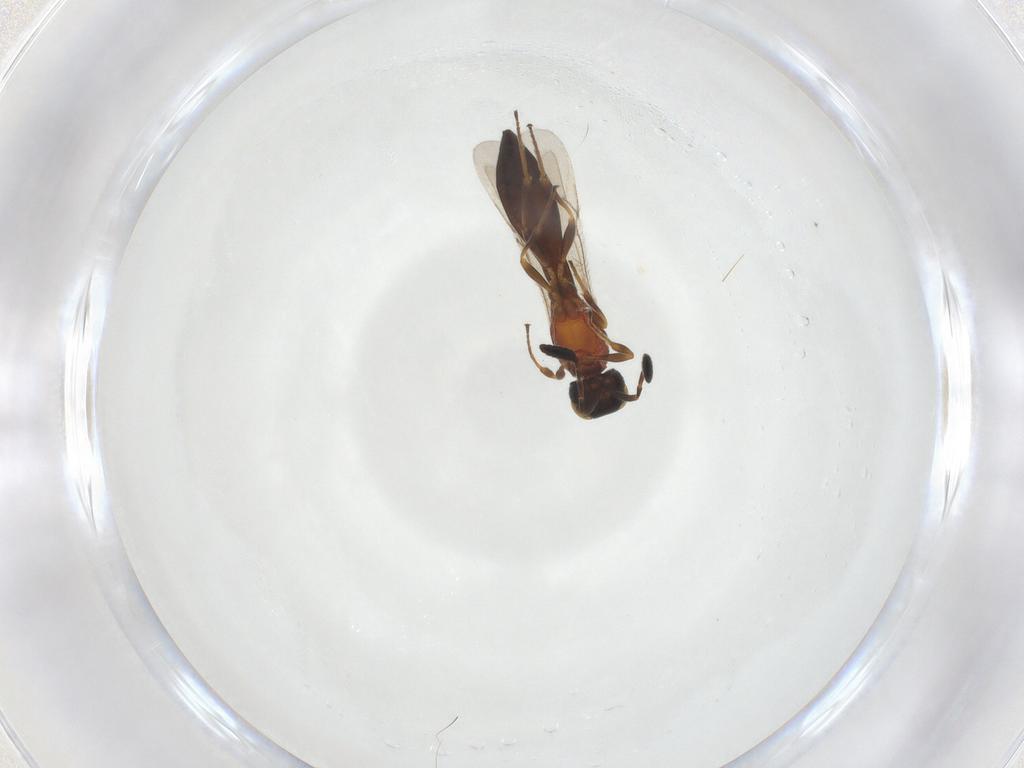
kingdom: Animalia
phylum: Arthropoda
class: Insecta
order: Hymenoptera
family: Scelionidae
